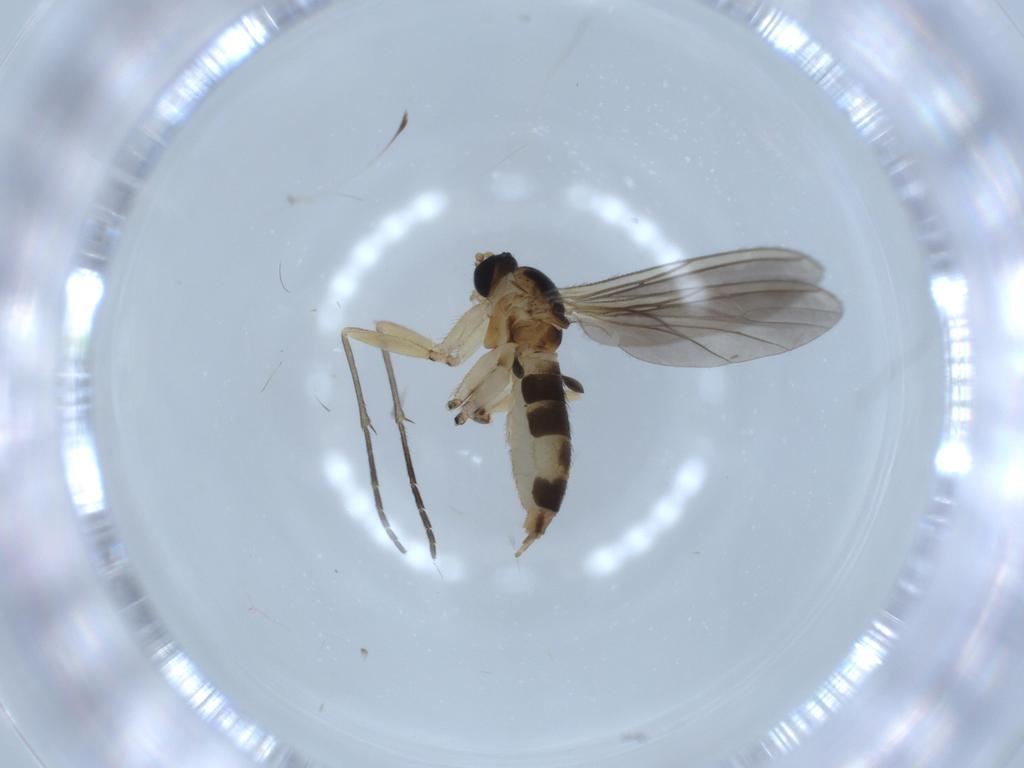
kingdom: Animalia
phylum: Arthropoda
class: Insecta
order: Diptera
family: Sciaridae
